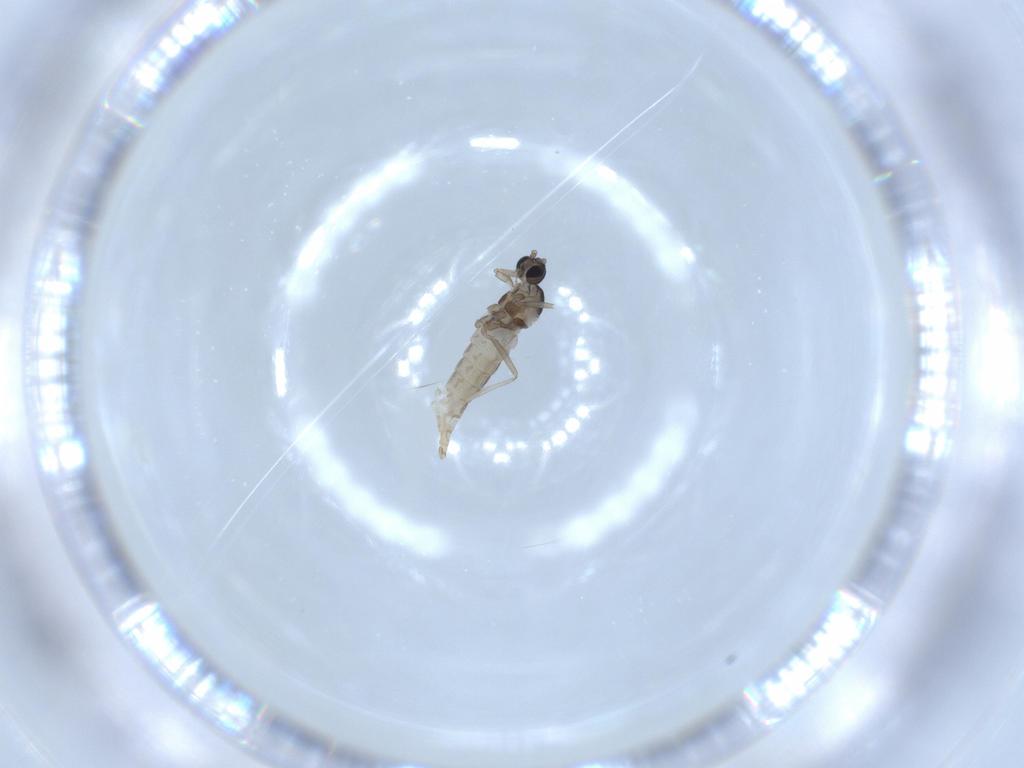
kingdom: Animalia
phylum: Arthropoda
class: Insecta
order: Diptera
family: Cecidomyiidae
